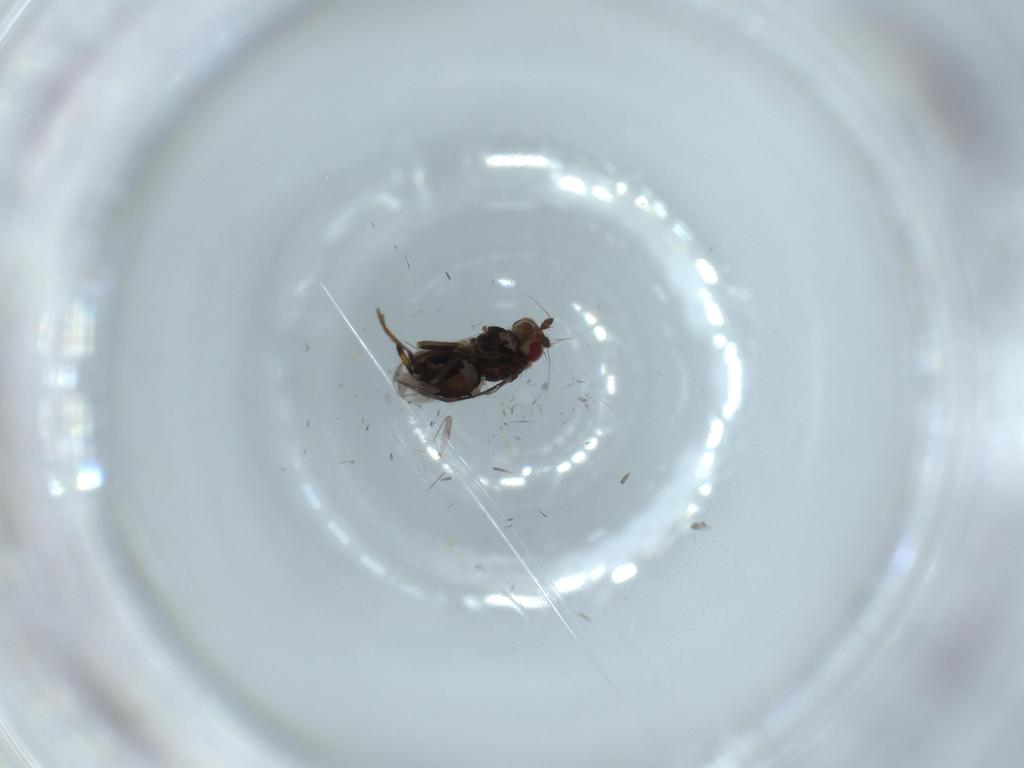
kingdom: Animalia
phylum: Arthropoda
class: Insecta
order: Diptera
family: Sphaeroceridae
